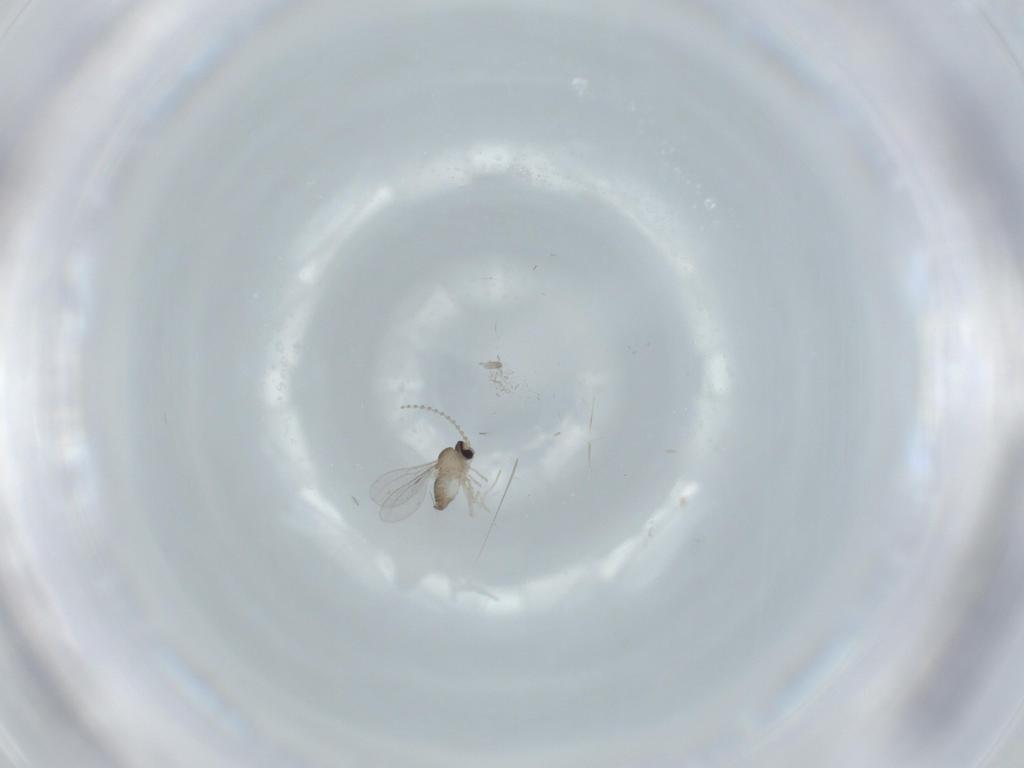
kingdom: Animalia
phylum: Arthropoda
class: Insecta
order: Diptera
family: Cecidomyiidae
